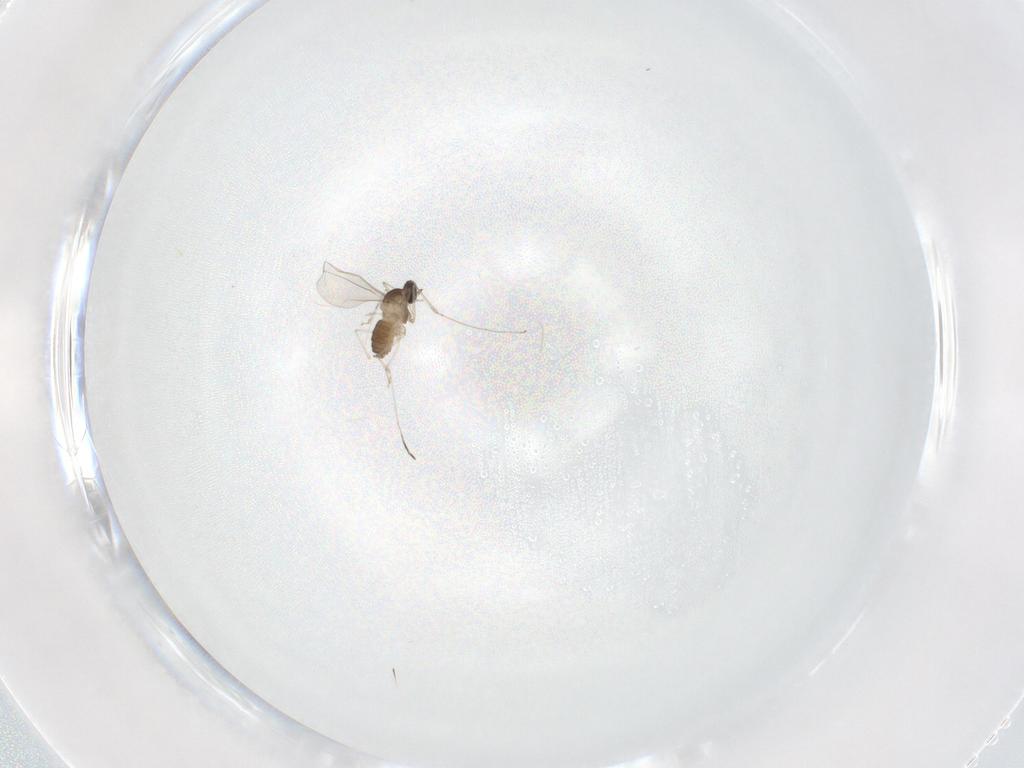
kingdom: Animalia
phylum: Arthropoda
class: Insecta
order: Diptera
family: Cecidomyiidae
